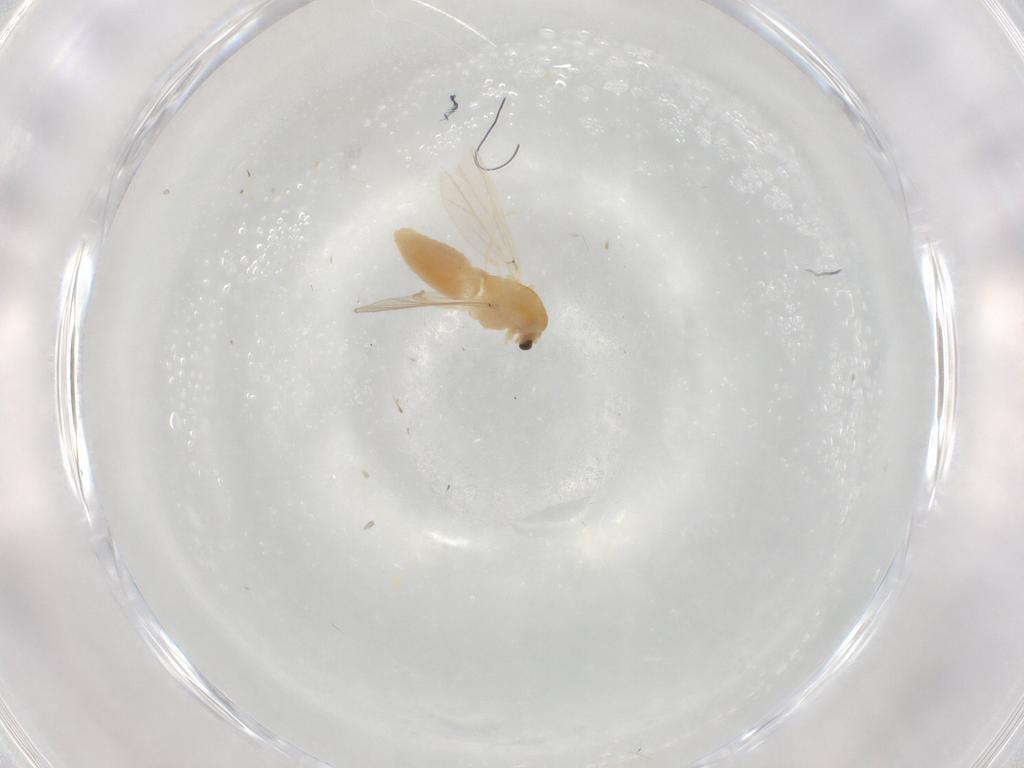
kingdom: Animalia
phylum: Arthropoda
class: Insecta
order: Diptera
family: Cecidomyiidae
